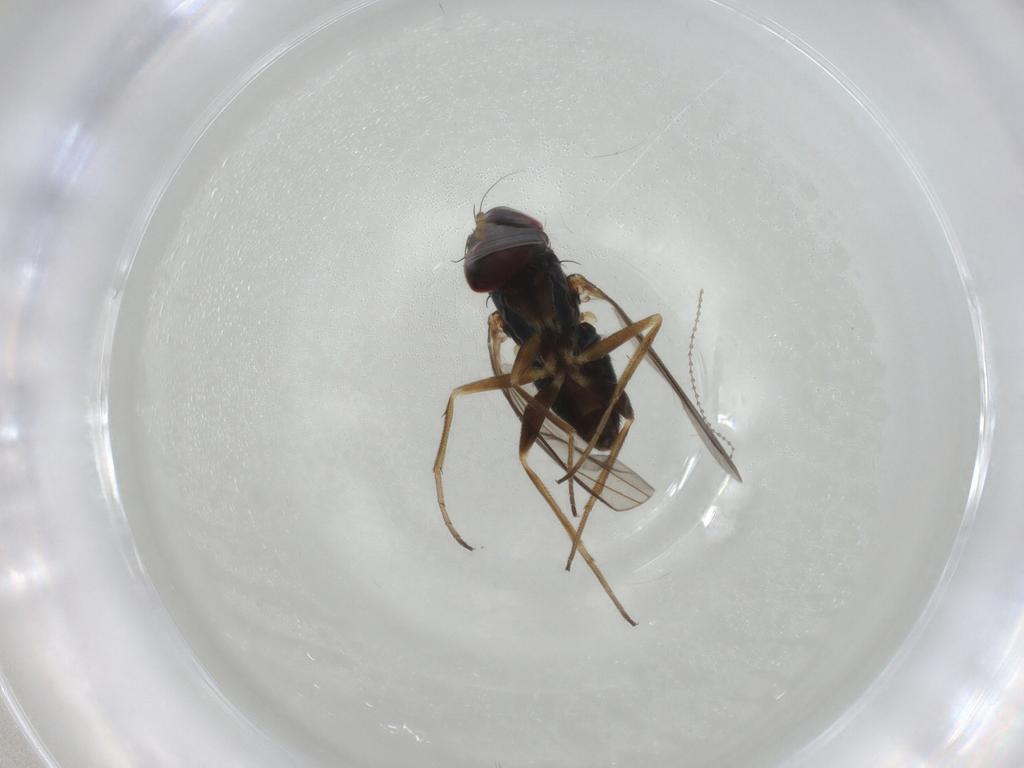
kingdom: Animalia
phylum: Arthropoda
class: Insecta
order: Diptera
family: Dolichopodidae
